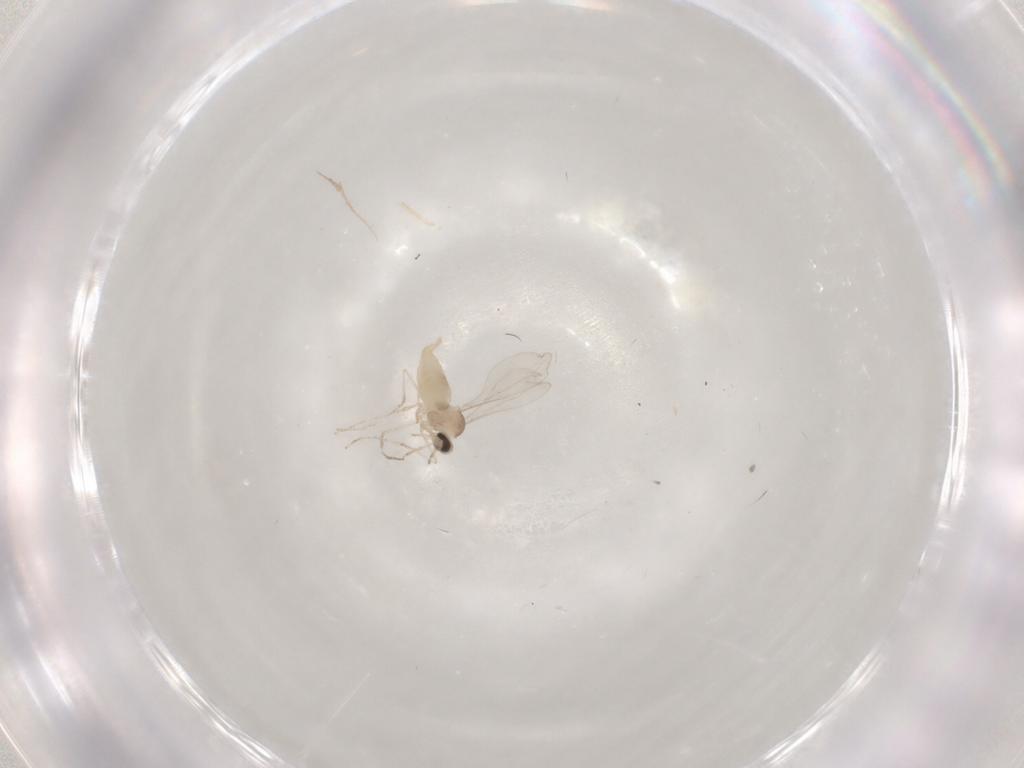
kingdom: Animalia
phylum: Arthropoda
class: Insecta
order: Diptera
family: Cecidomyiidae
